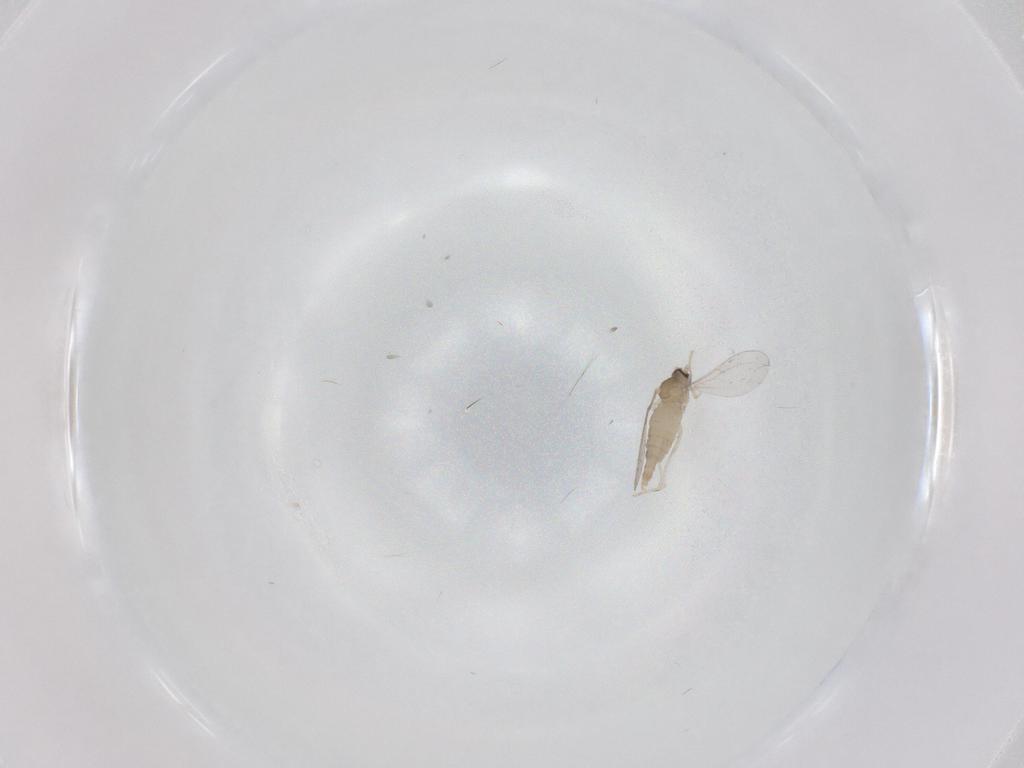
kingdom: Animalia
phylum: Arthropoda
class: Insecta
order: Diptera
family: Cecidomyiidae
